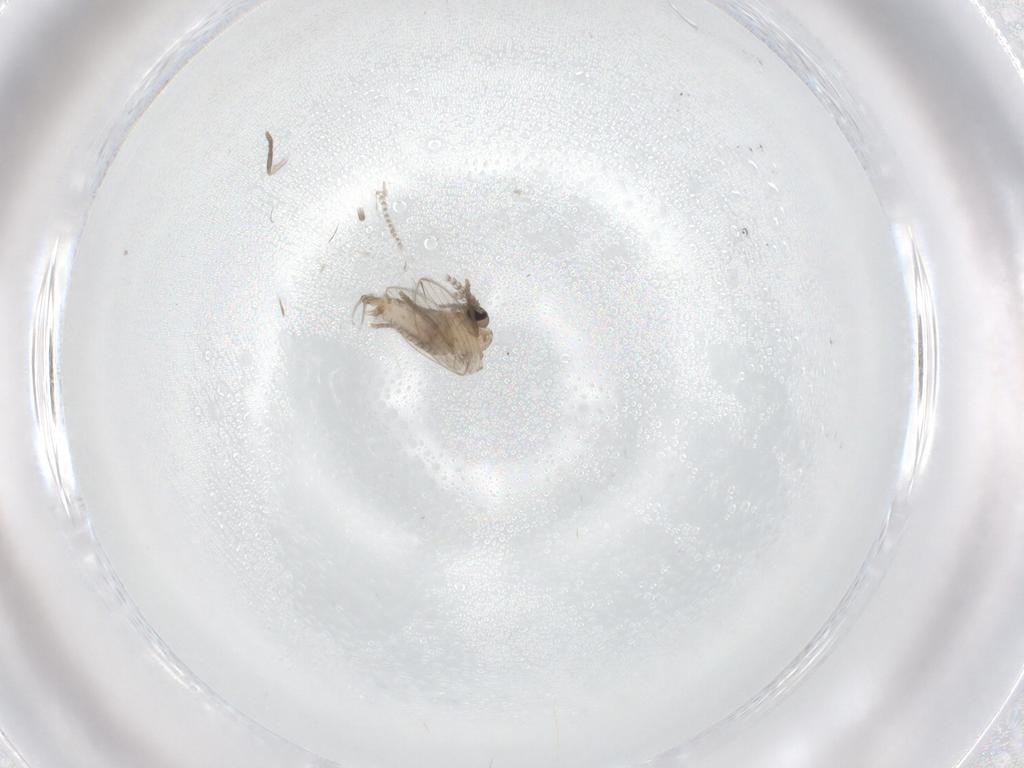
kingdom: Animalia
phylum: Arthropoda
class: Insecta
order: Diptera
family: Psychodidae
